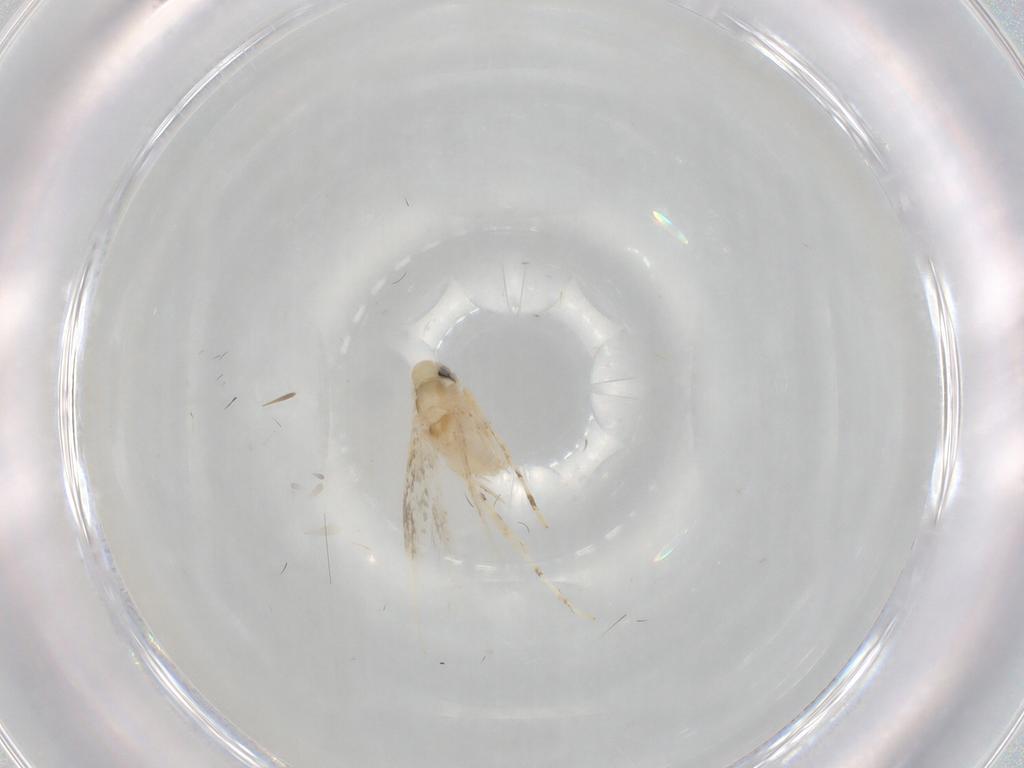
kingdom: Animalia
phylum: Arthropoda
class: Insecta
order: Lepidoptera
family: Gracillariidae
